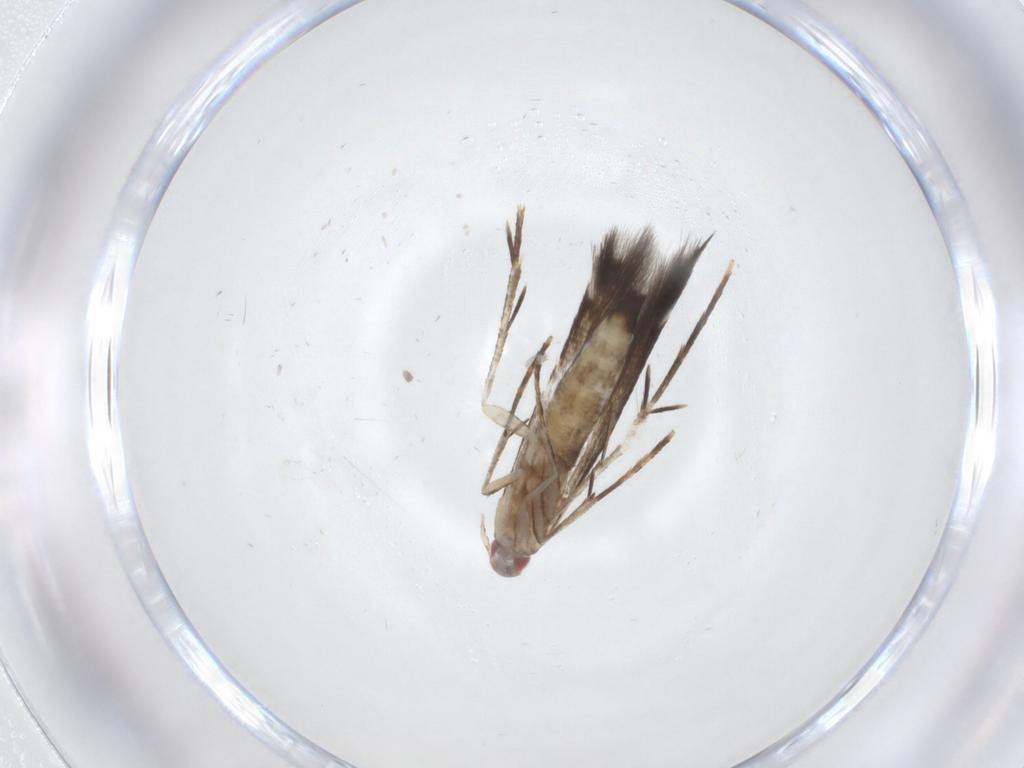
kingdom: Animalia
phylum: Arthropoda
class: Insecta
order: Lepidoptera
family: Cosmopterigidae
